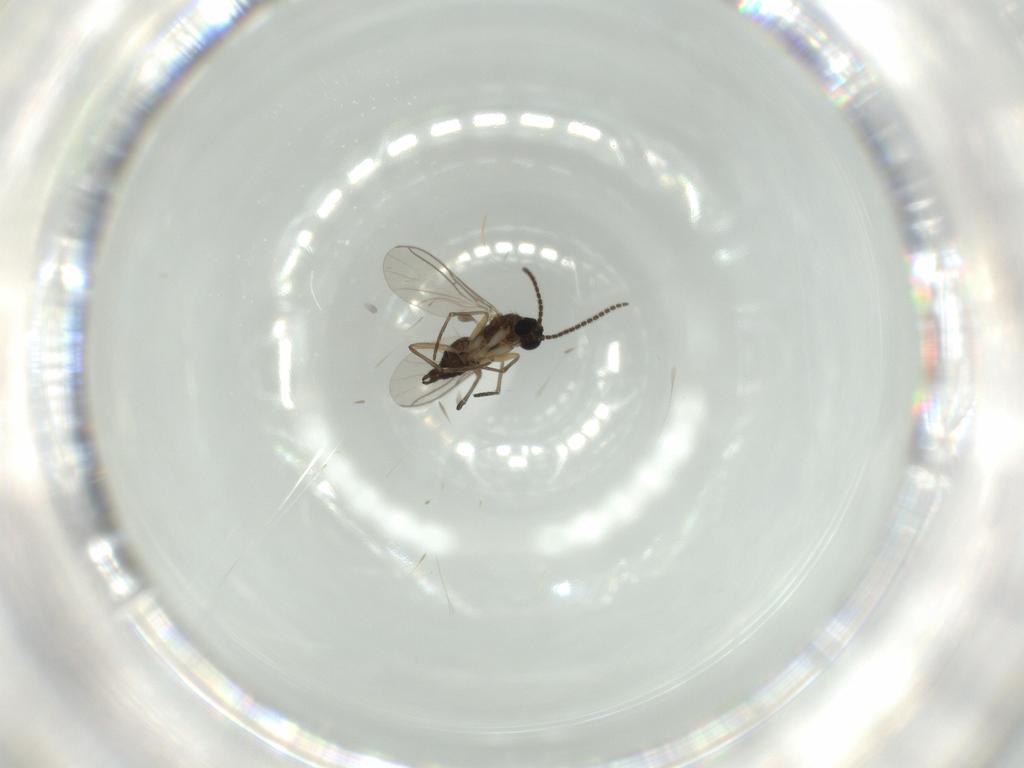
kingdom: Animalia
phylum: Arthropoda
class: Insecta
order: Diptera
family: Sciaridae
